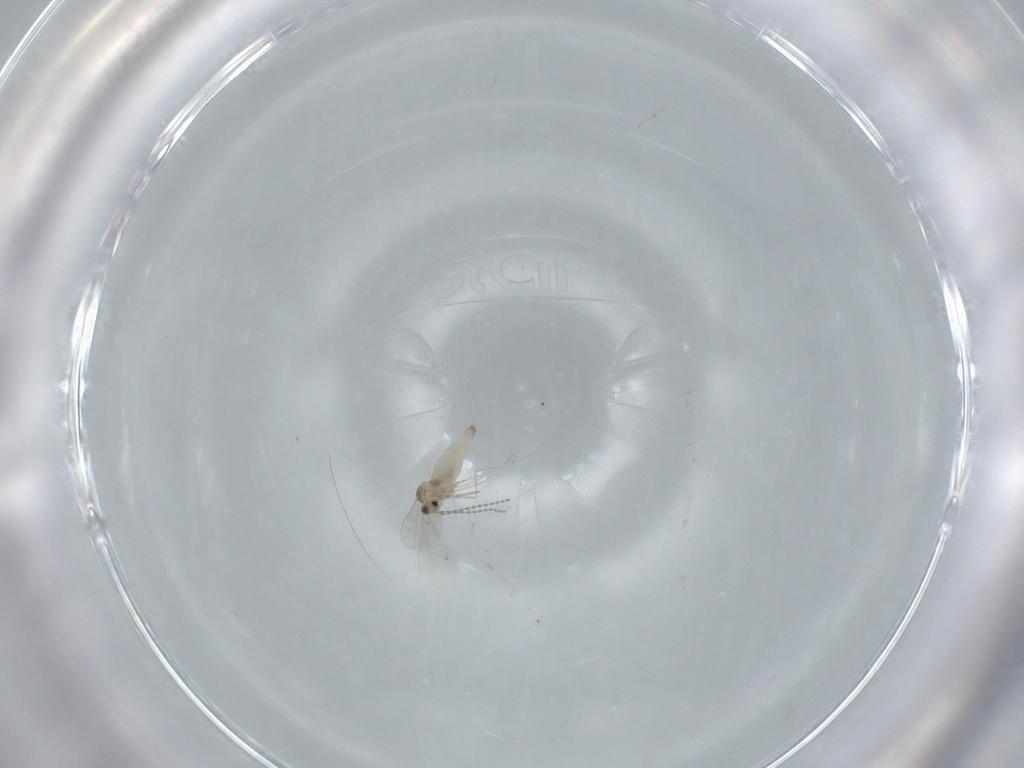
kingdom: Animalia
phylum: Arthropoda
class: Insecta
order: Diptera
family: Cecidomyiidae
